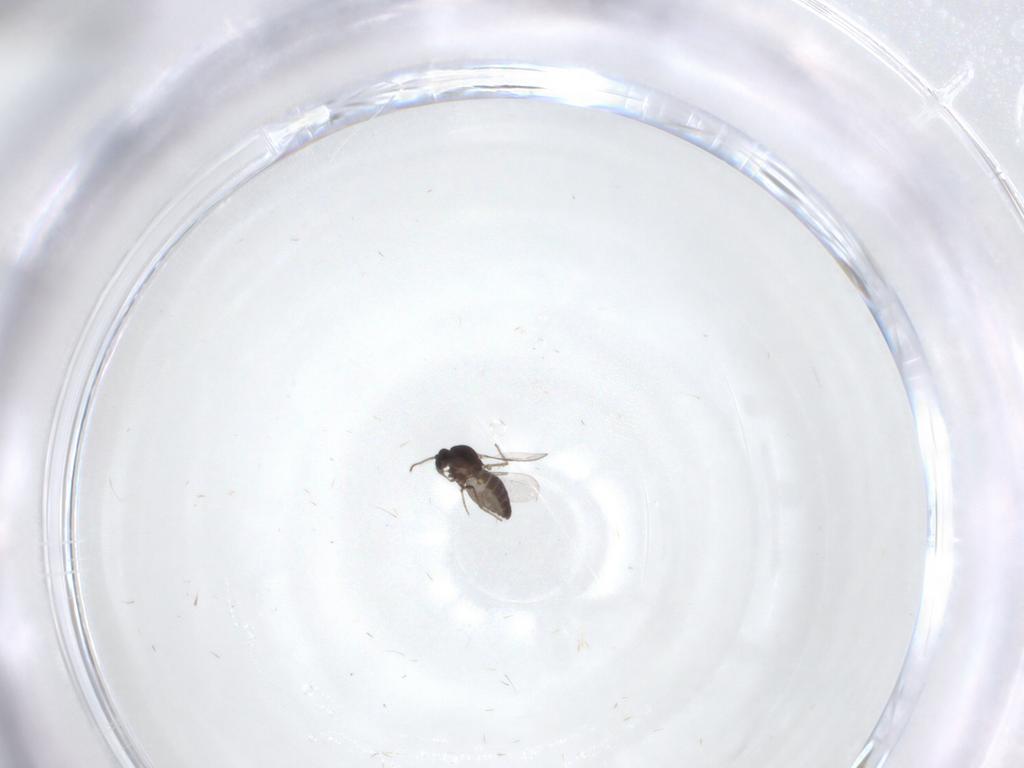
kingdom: Animalia
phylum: Arthropoda
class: Insecta
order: Diptera
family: Ceratopogonidae
